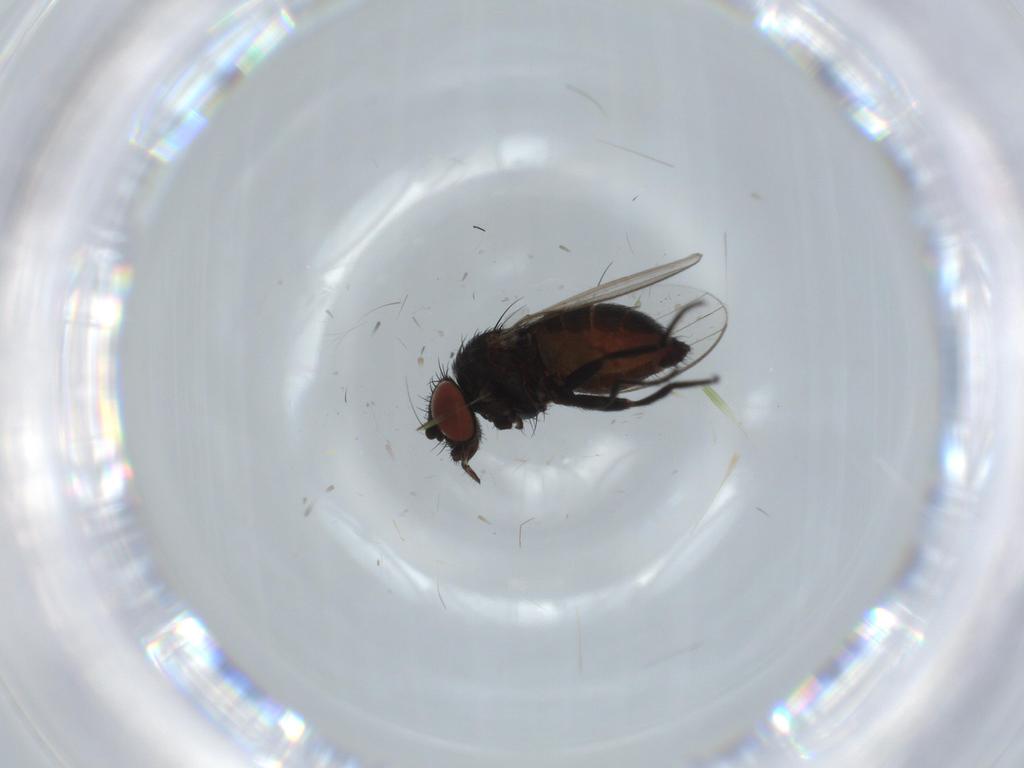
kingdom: Animalia
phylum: Arthropoda
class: Insecta
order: Diptera
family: Milichiidae
